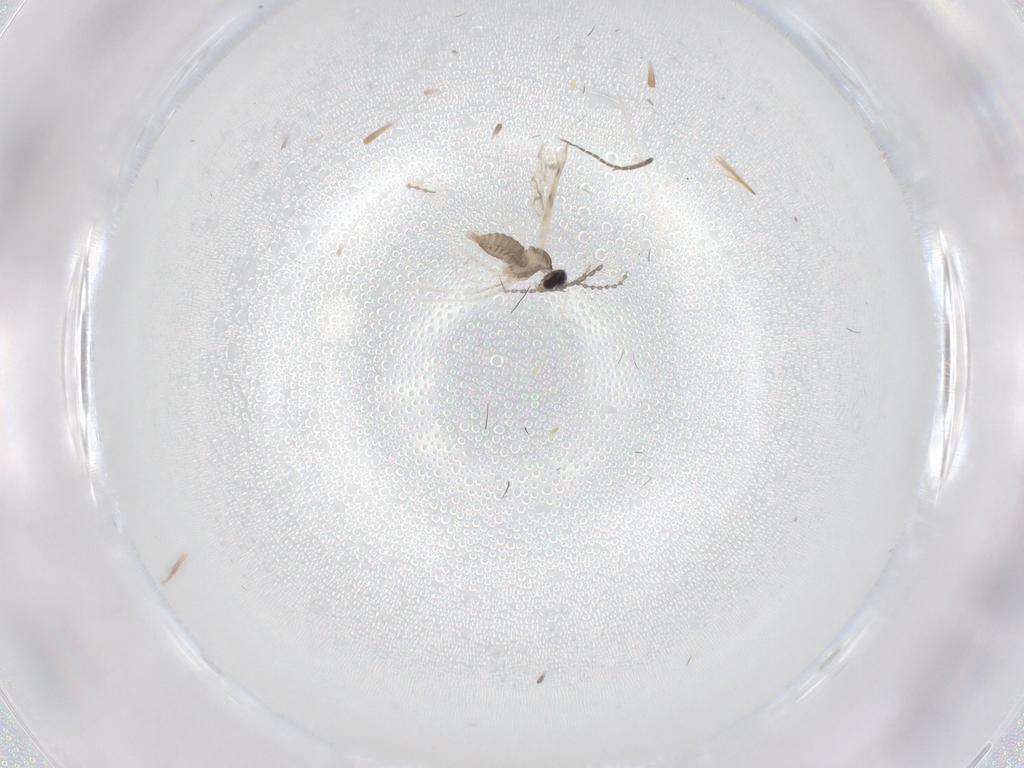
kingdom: Animalia
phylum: Arthropoda
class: Insecta
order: Diptera
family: Cecidomyiidae
